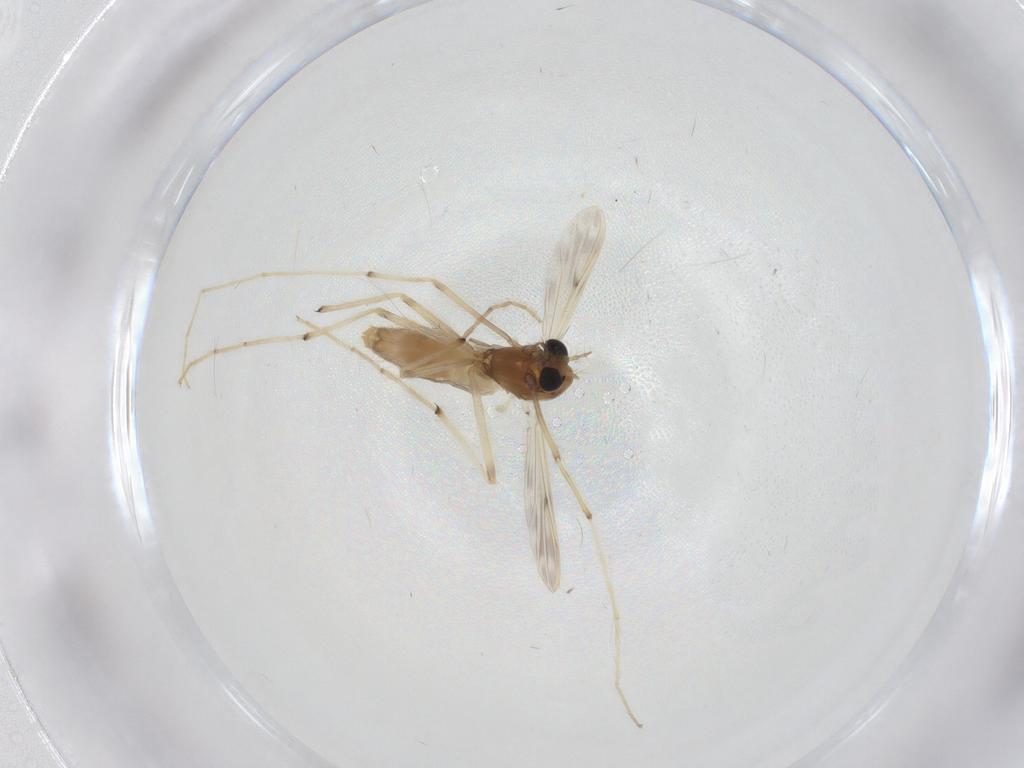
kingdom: Animalia
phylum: Arthropoda
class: Insecta
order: Diptera
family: Chironomidae
